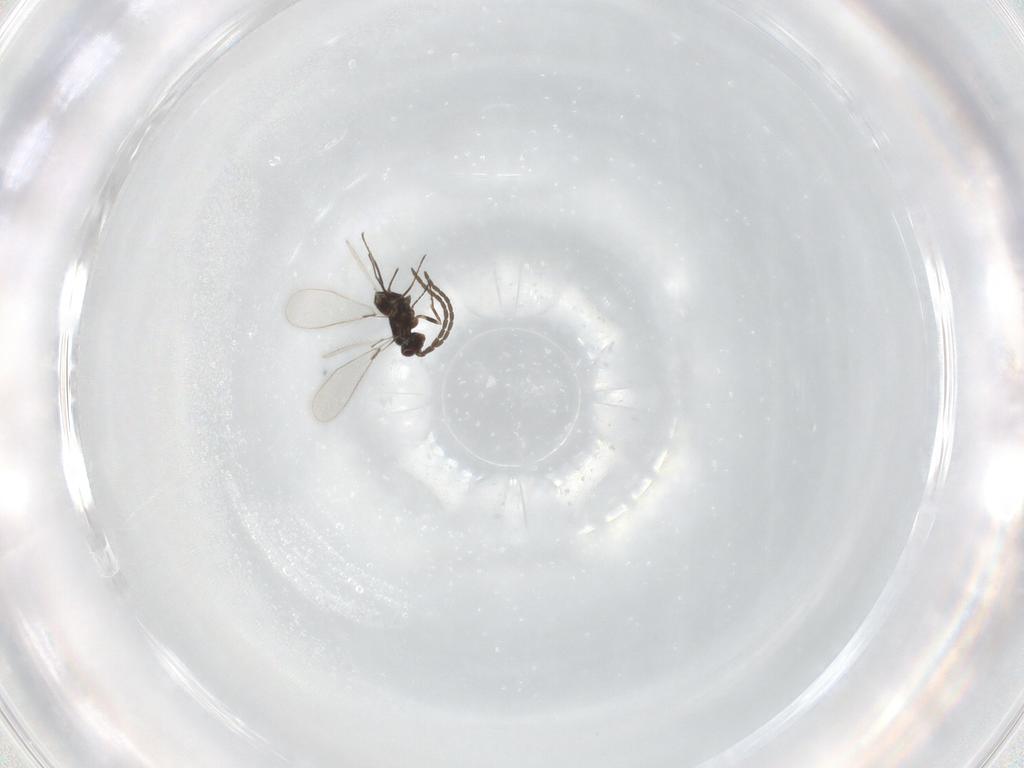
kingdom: Animalia
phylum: Arthropoda
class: Insecta
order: Hymenoptera
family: Mymaridae
